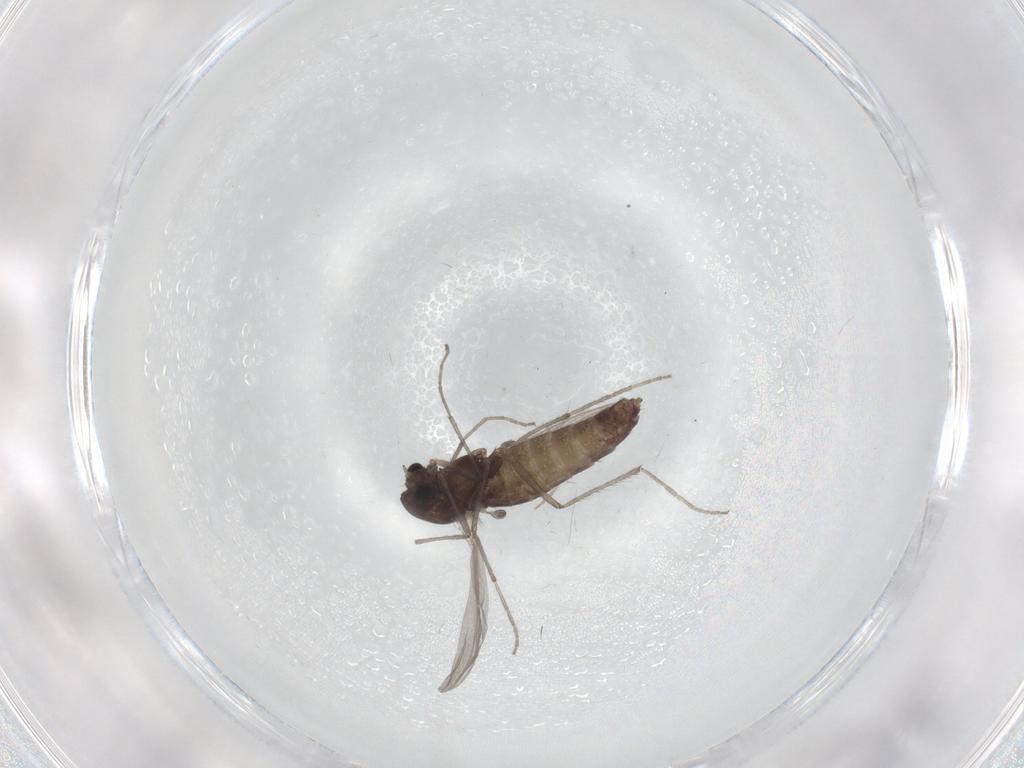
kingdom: Animalia
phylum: Arthropoda
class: Insecta
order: Diptera
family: Chironomidae
